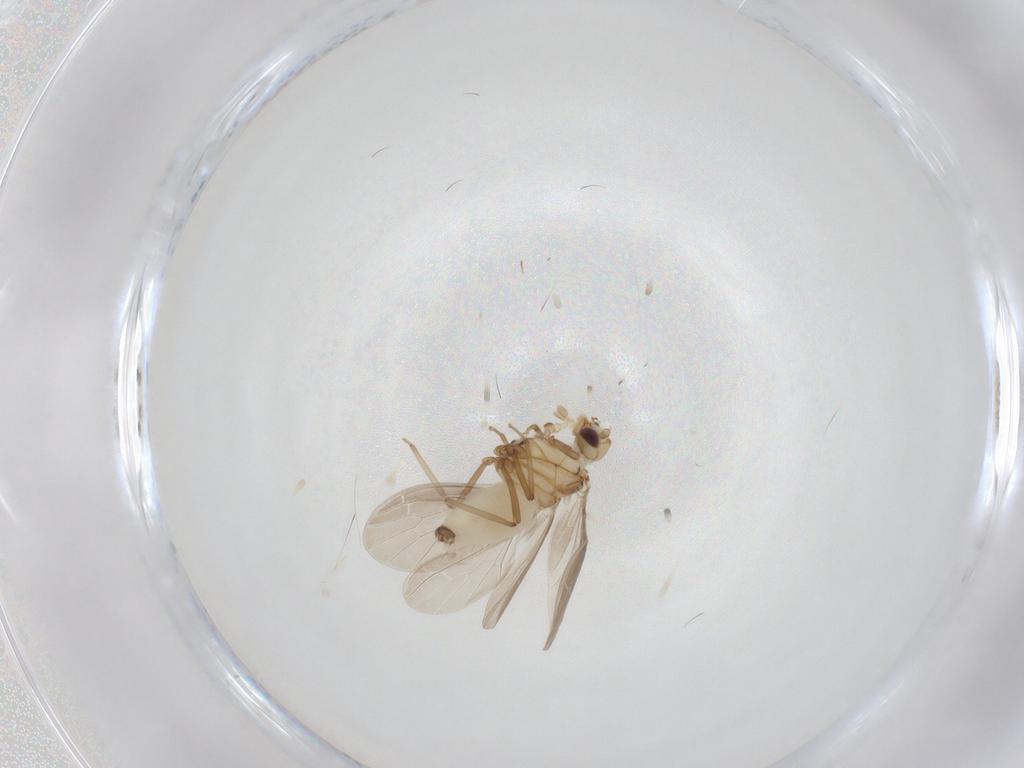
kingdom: Animalia
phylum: Arthropoda
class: Insecta
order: Neuroptera
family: Coniopterygidae
